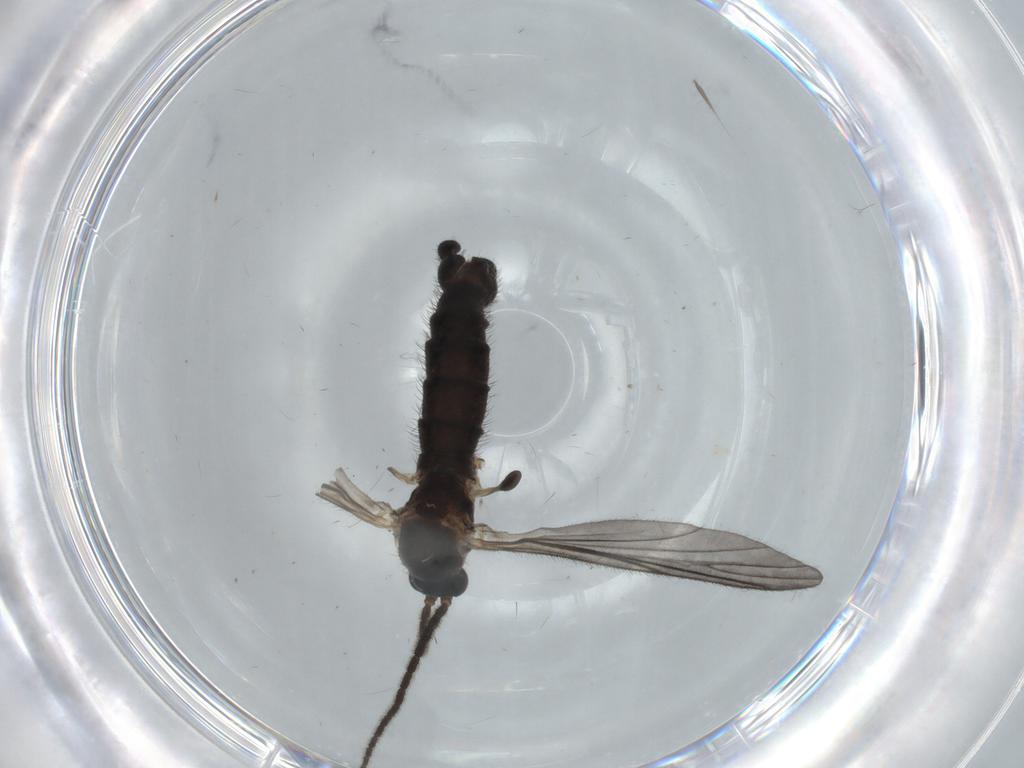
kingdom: Animalia
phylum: Arthropoda
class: Insecta
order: Diptera
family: Sciaridae
